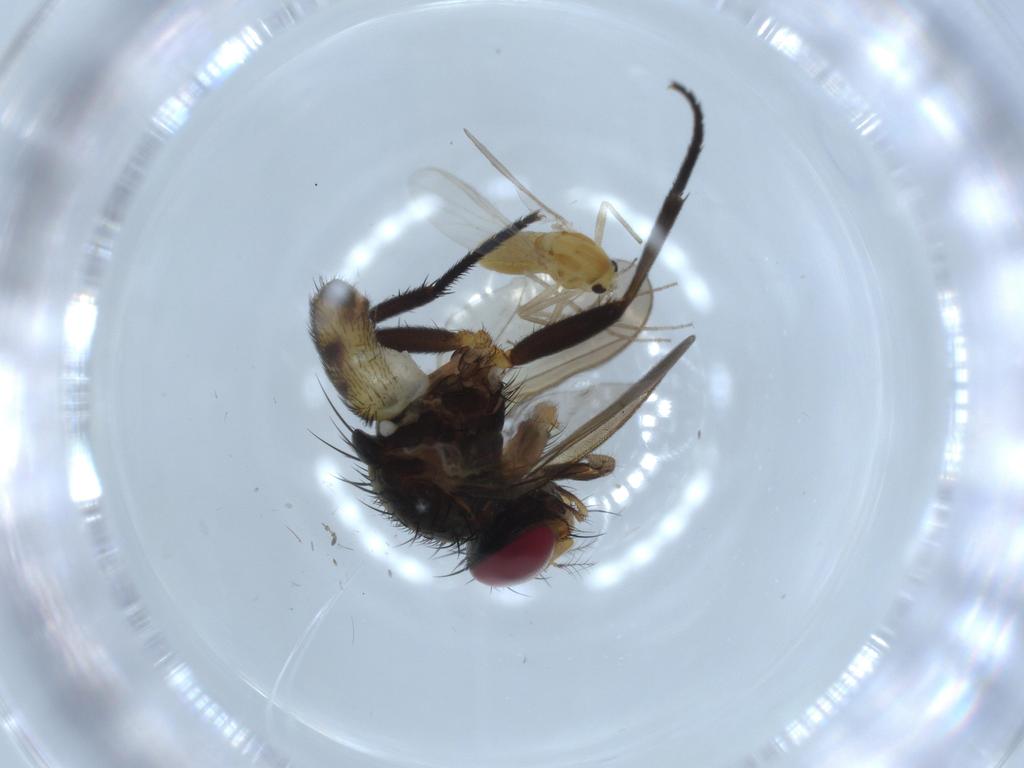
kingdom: Animalia
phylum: Arthropoda
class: Insecta
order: Diptera
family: Anthomyiidae
